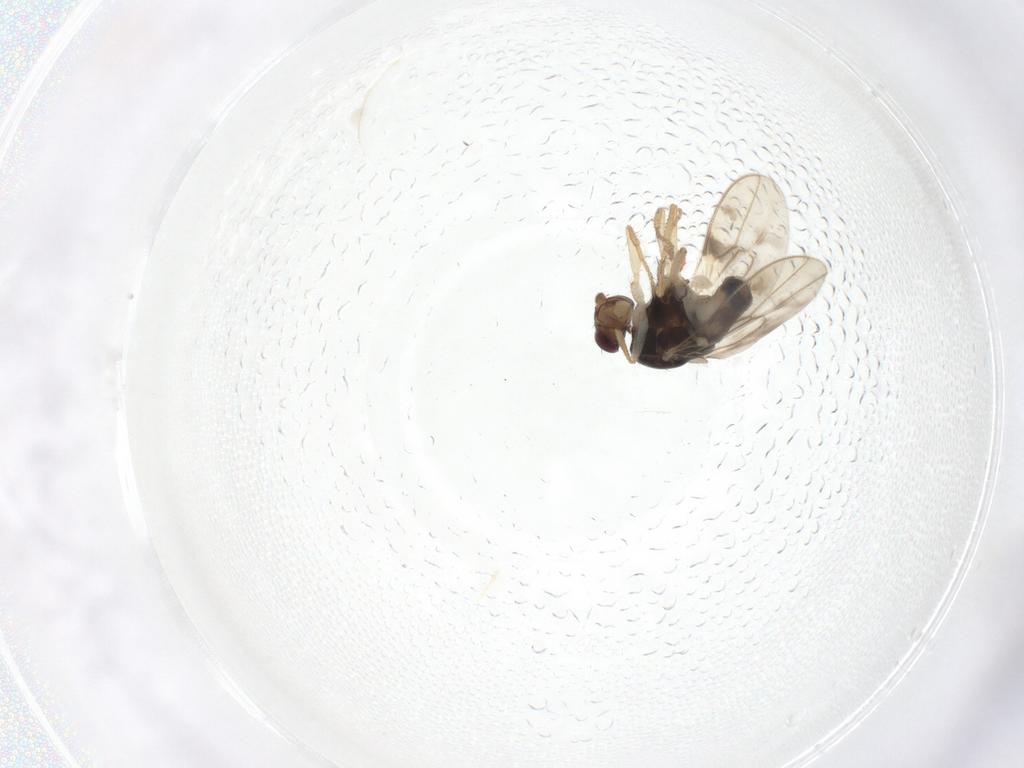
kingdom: Animalia
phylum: Arthropoda
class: Insecta
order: Diptera
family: Sphaeroceridae
